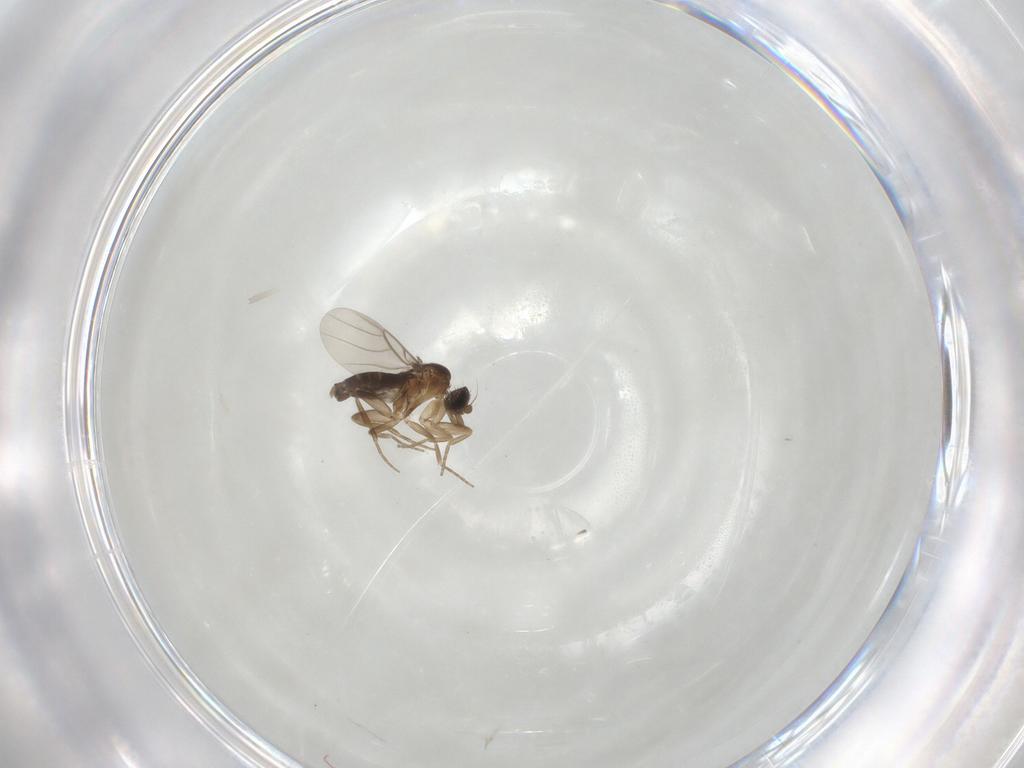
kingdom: Animalia
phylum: Arthropoda
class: Insecta
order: Diptera
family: Phoridae
